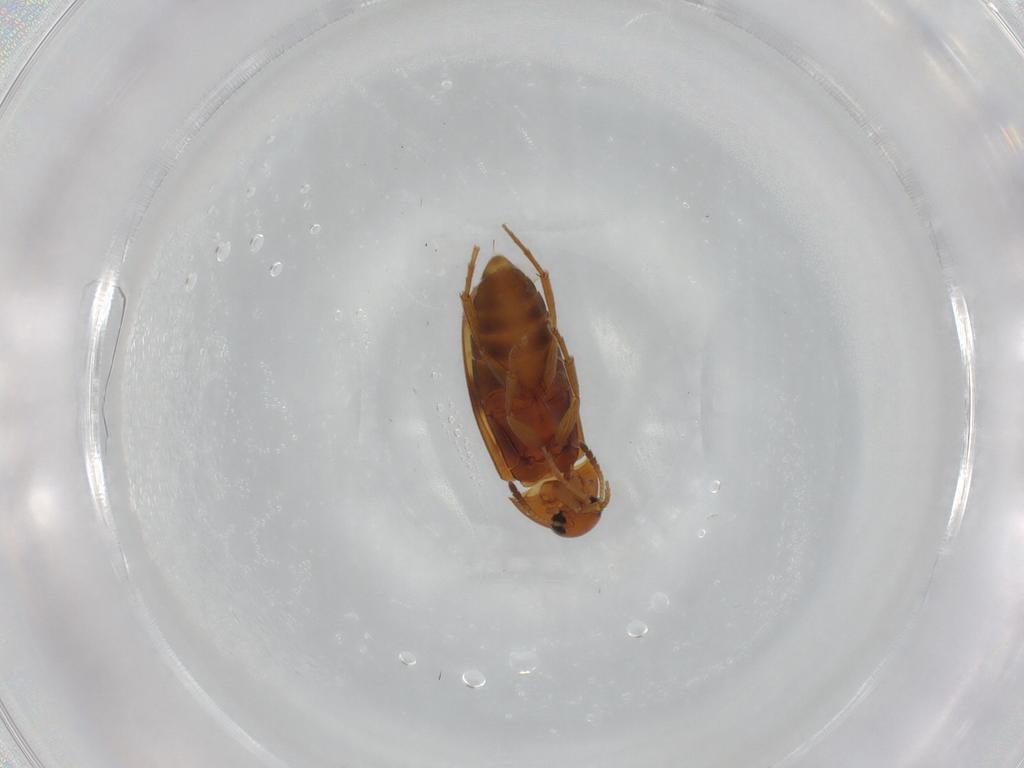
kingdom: Animalia
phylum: Arthropoda
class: Insecta
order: Coleoptera
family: Scraptiidae
